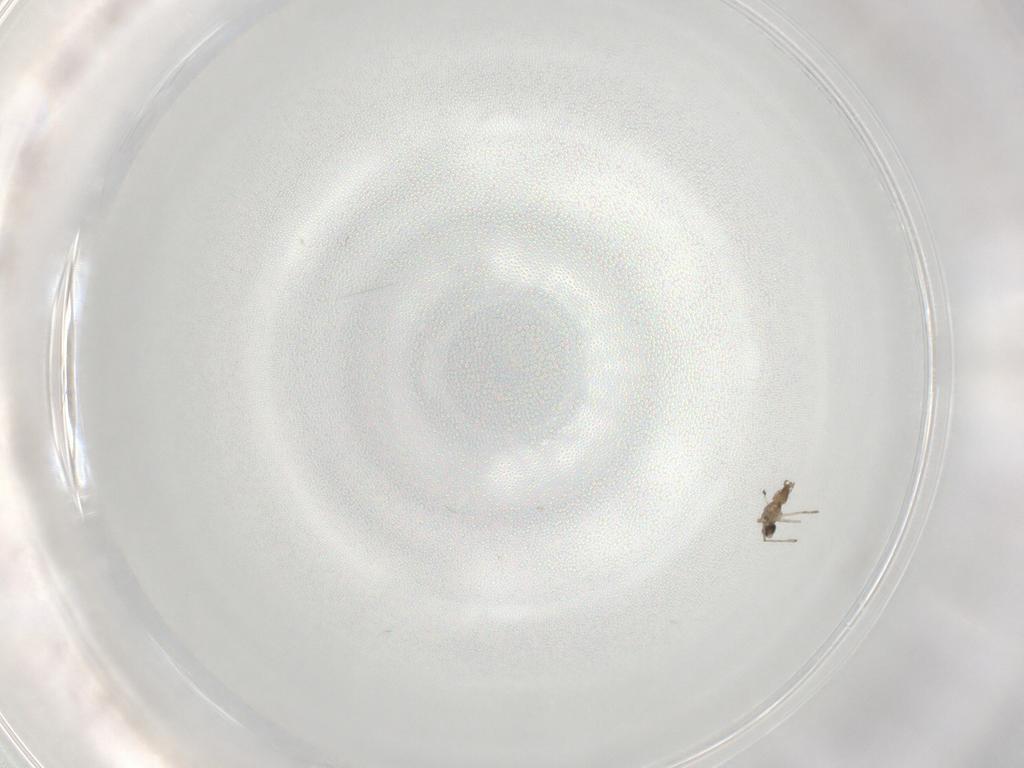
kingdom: Animalia
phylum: Arthropoda
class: Insecta
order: Diptera
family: Cecidomyiidae
